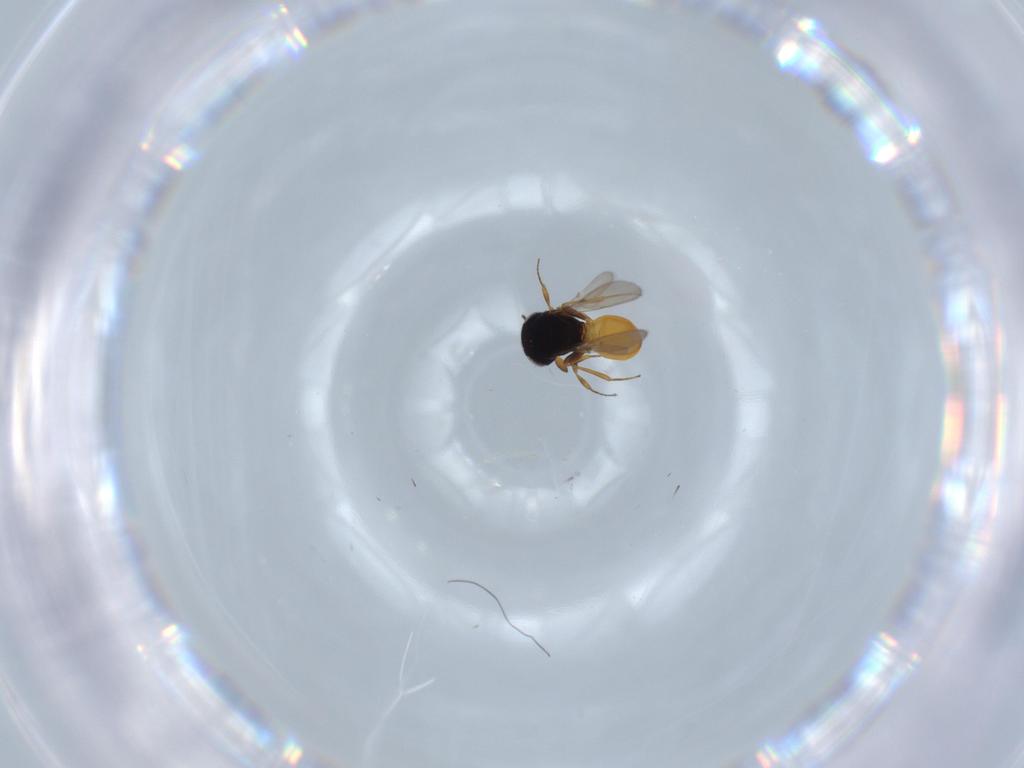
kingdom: Animalia
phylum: Arthropoda
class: Insecta
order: Hymenoptera
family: Scelionidae
